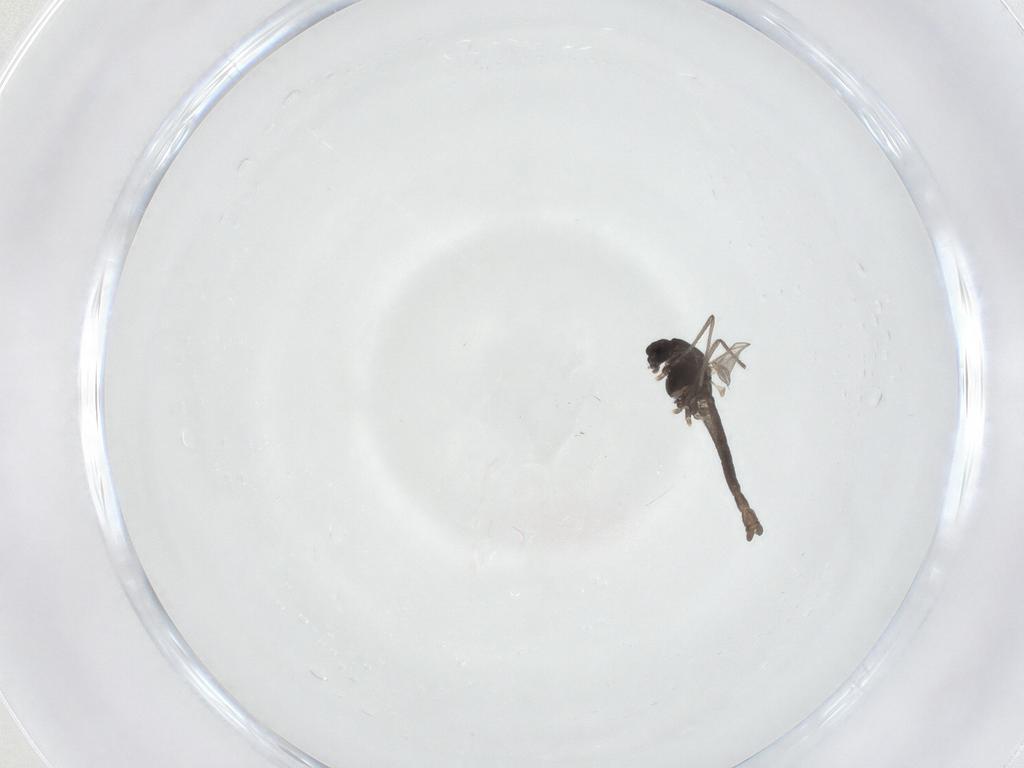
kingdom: Animalia
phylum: Arthropoda
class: Insecta
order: Diptera
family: Chironomidae
